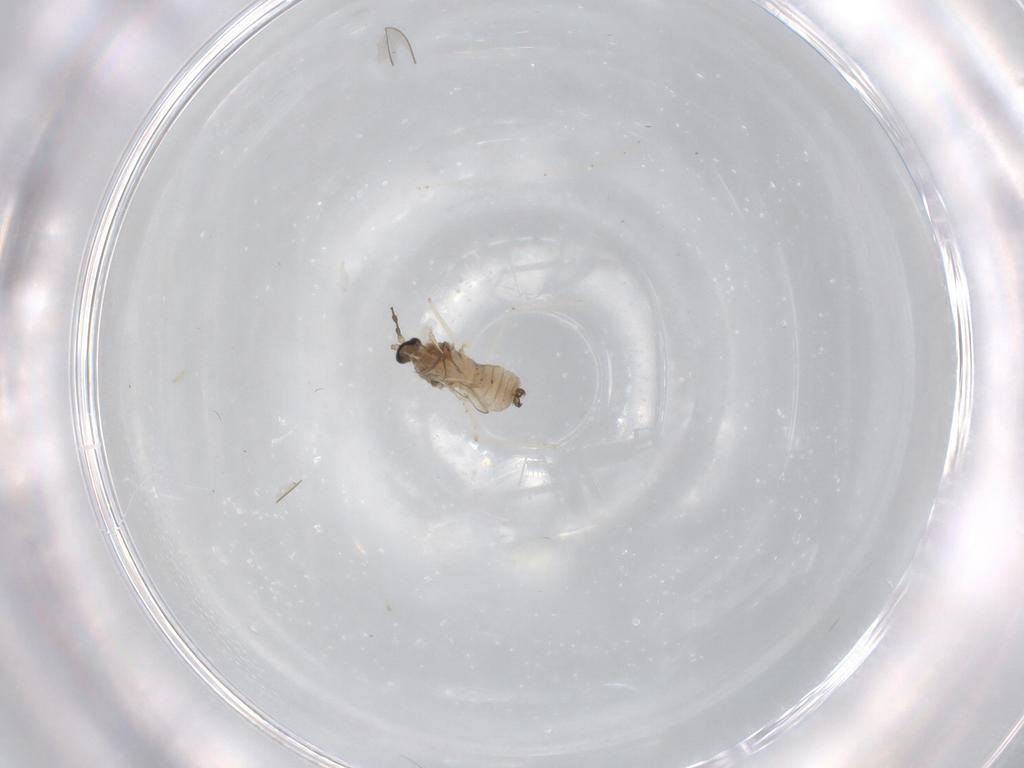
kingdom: Animalia
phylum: Arthropoda
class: Insecta
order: Diptera
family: Cecidomyiidae
